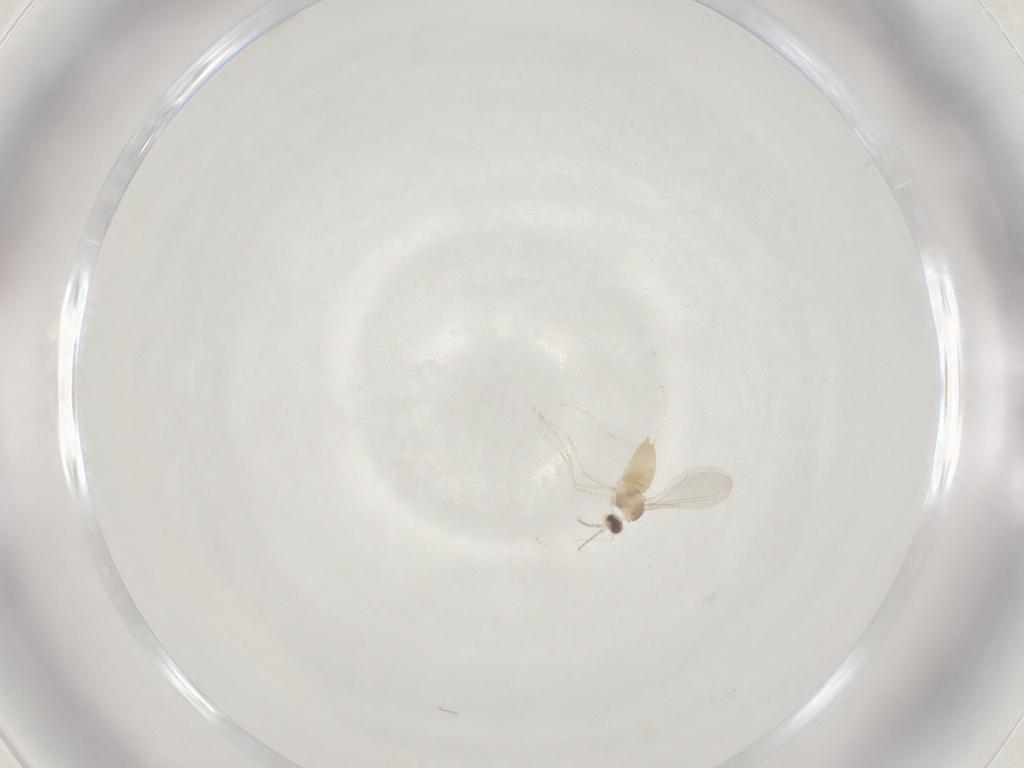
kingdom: Animalia
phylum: Arthropoda
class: Insecta
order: Diptera
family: Cecidomyiidae
